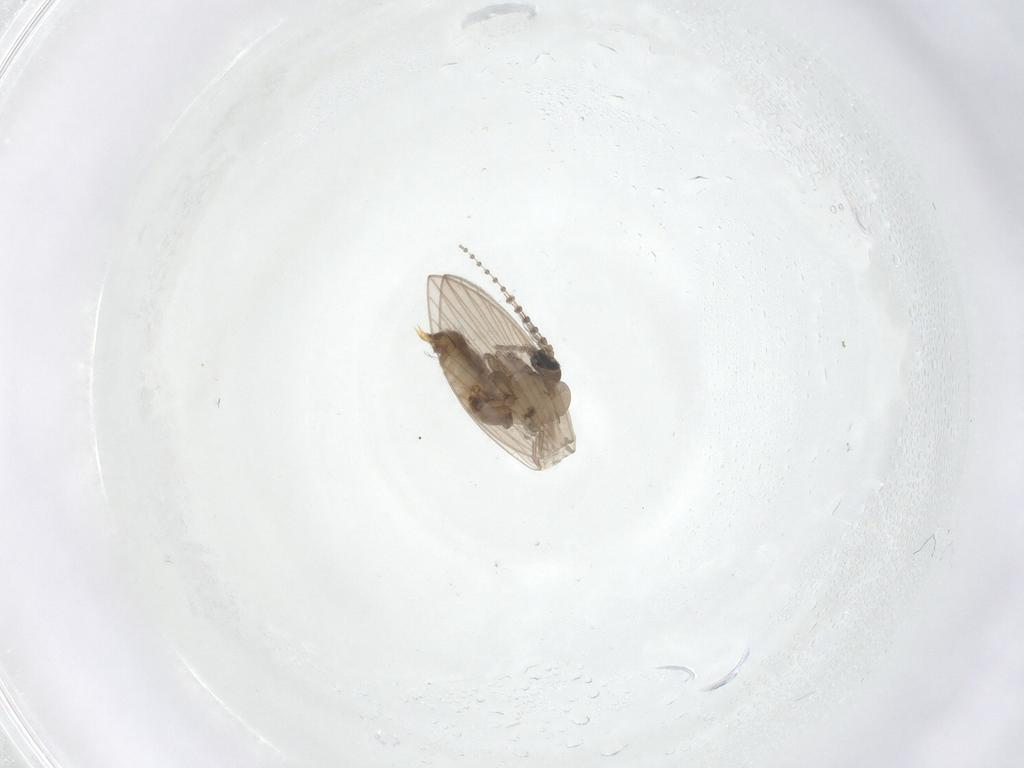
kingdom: Animalia
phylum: Arthropoda
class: Insecta
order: Diptera
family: Psychodidae
